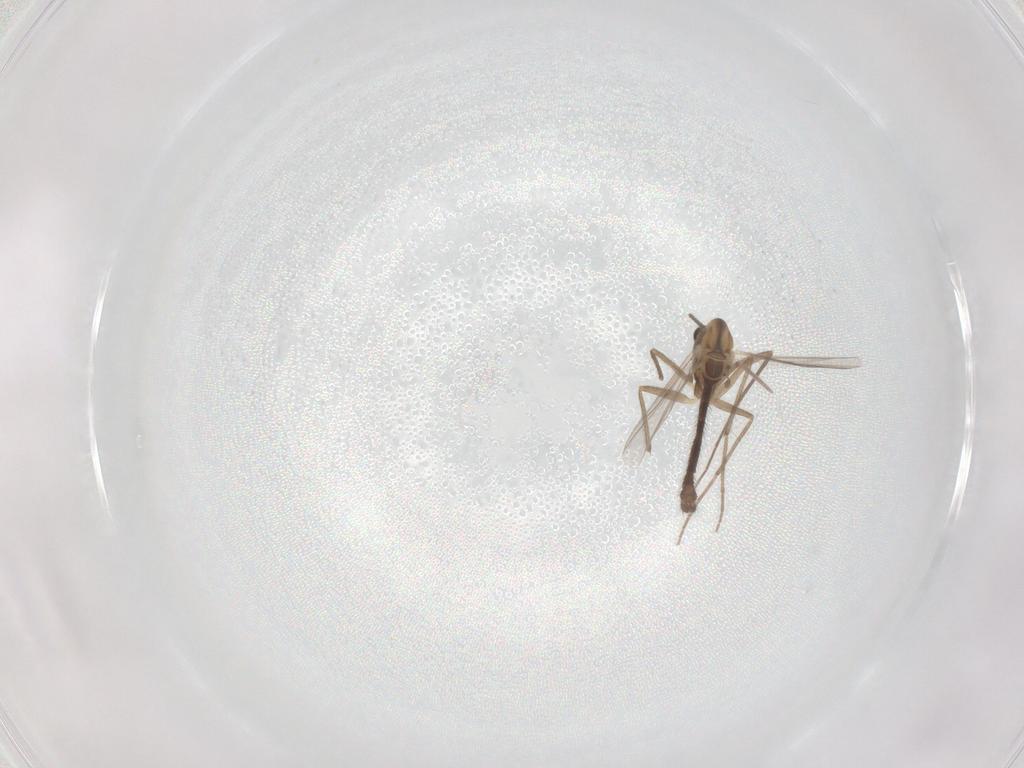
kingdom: Animalia
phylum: Arthropoda
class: Insecta
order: Diptera
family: Chironomidae
